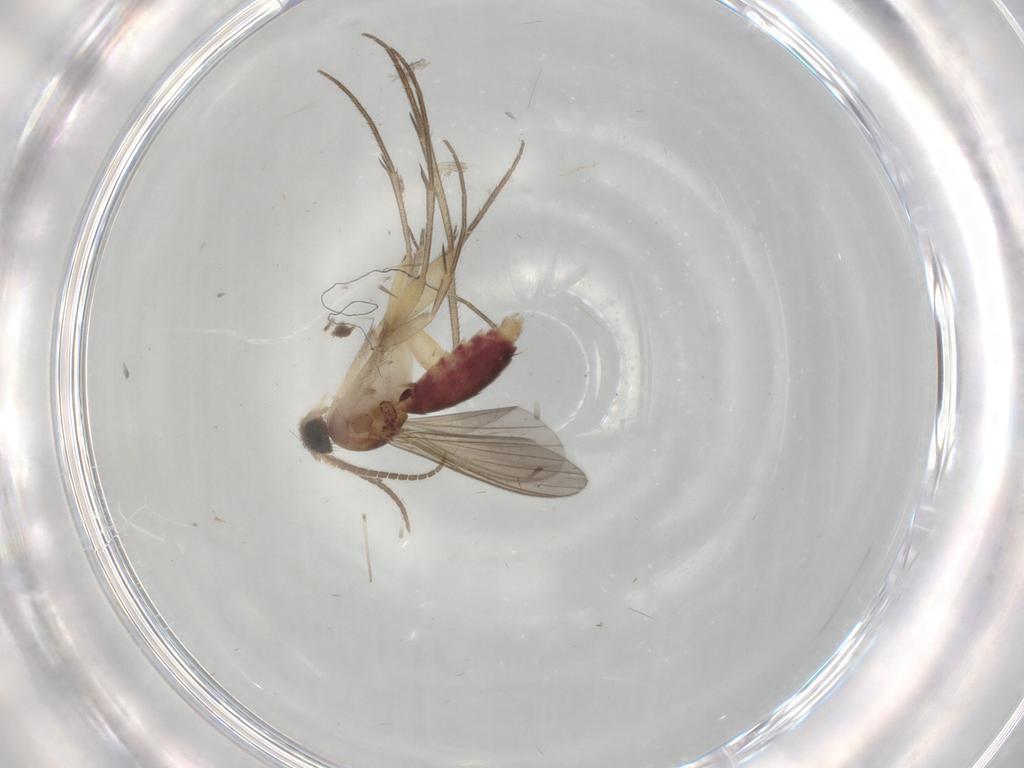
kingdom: Animalia
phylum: Arthropoda
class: Insecta
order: Diptera
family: Mycetophilidae
